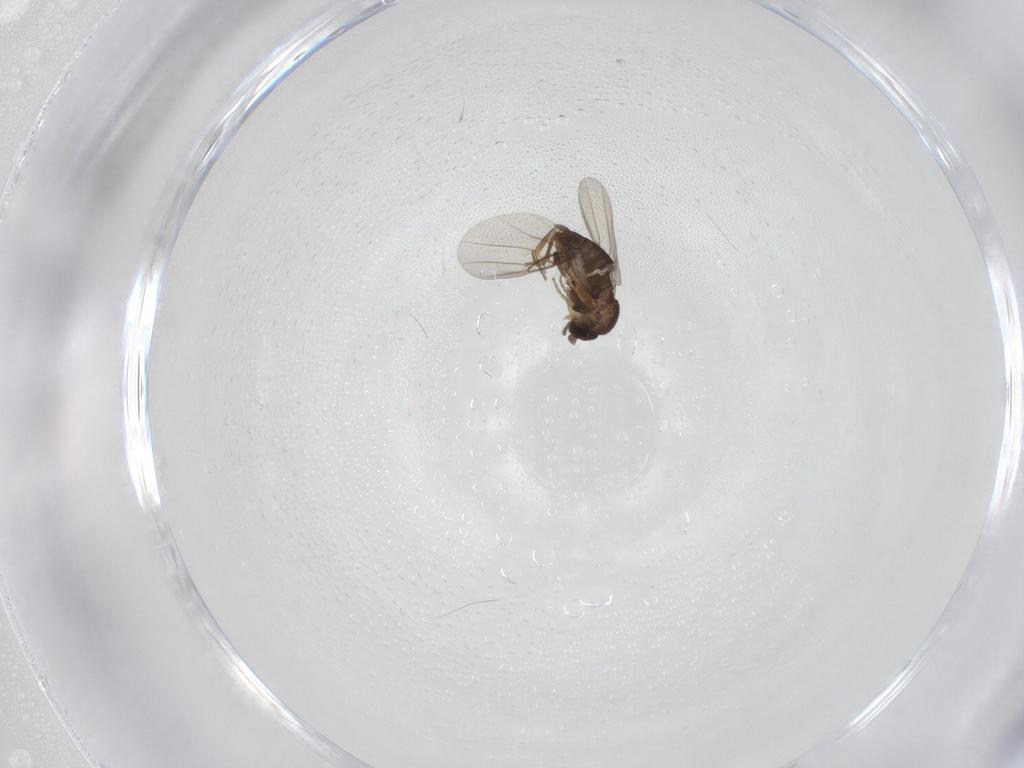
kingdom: Animalia
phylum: Arthropoda
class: Insecta
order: Diptera
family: Phoridae
